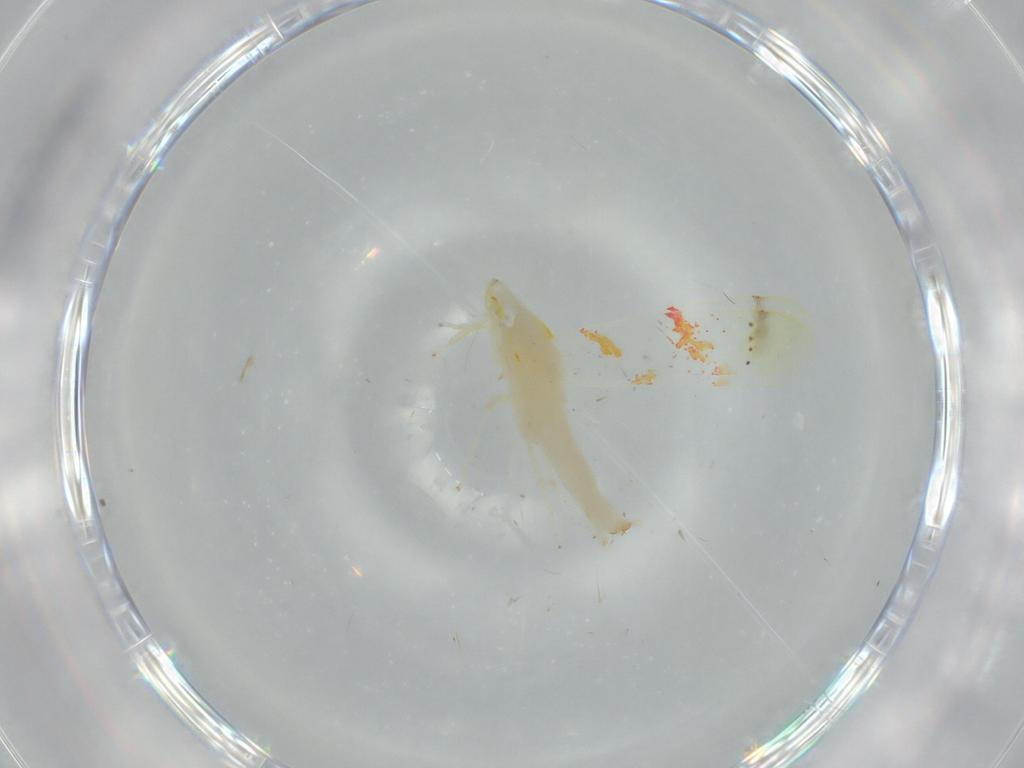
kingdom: Animalia
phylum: Arthropoda
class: Insecta
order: Hemiptera
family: Cicadellidae
